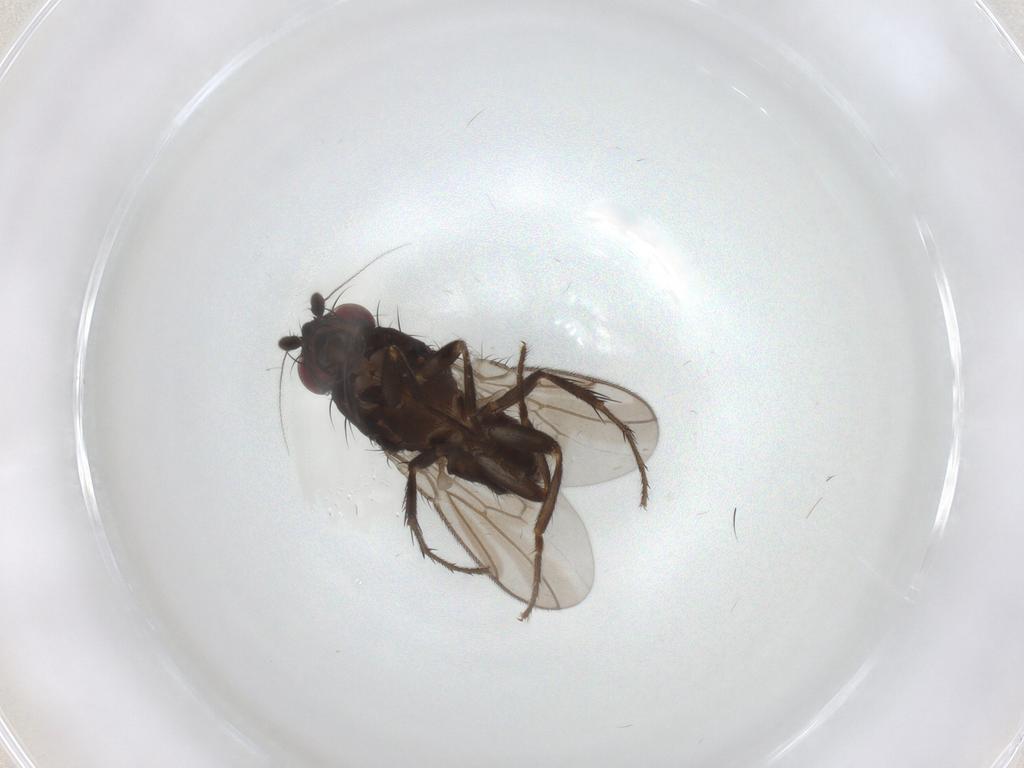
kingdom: Animalia
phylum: Arthropoda
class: Insecta
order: Diptera
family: Sphaeroceridae
